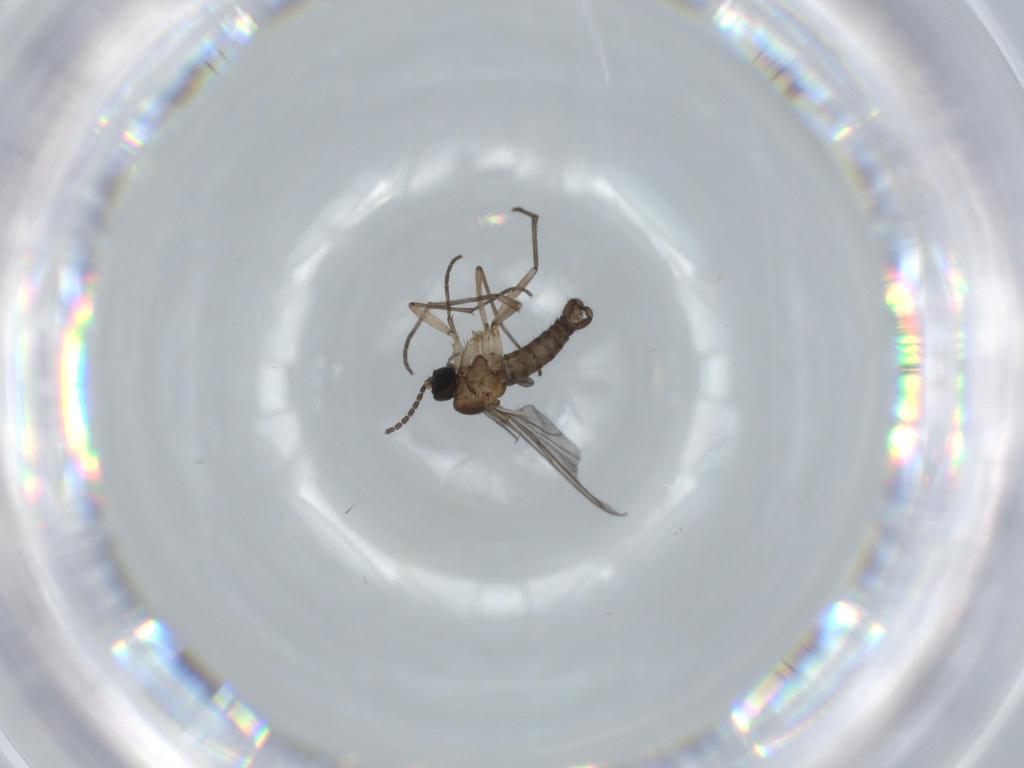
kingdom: Animalia
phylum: Arthropoda
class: Insecta
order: Diptera
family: Sciaridae
